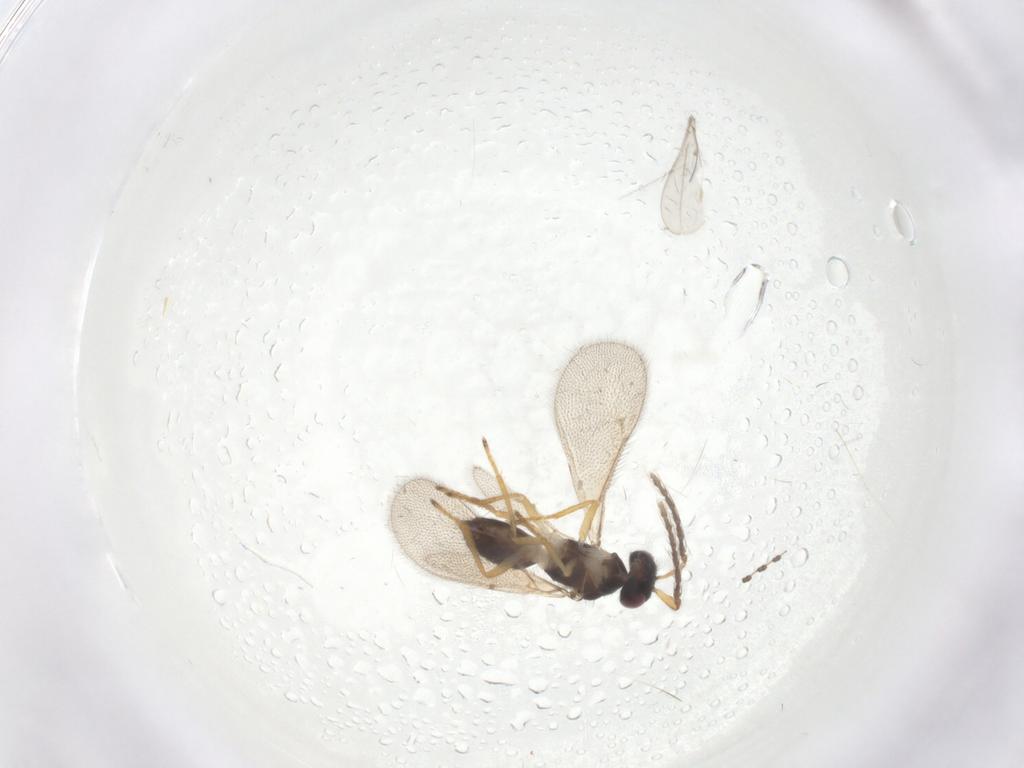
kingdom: Animalia
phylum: Arthropoda
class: Insecta
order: Hymenoptera
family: Eulophidae
